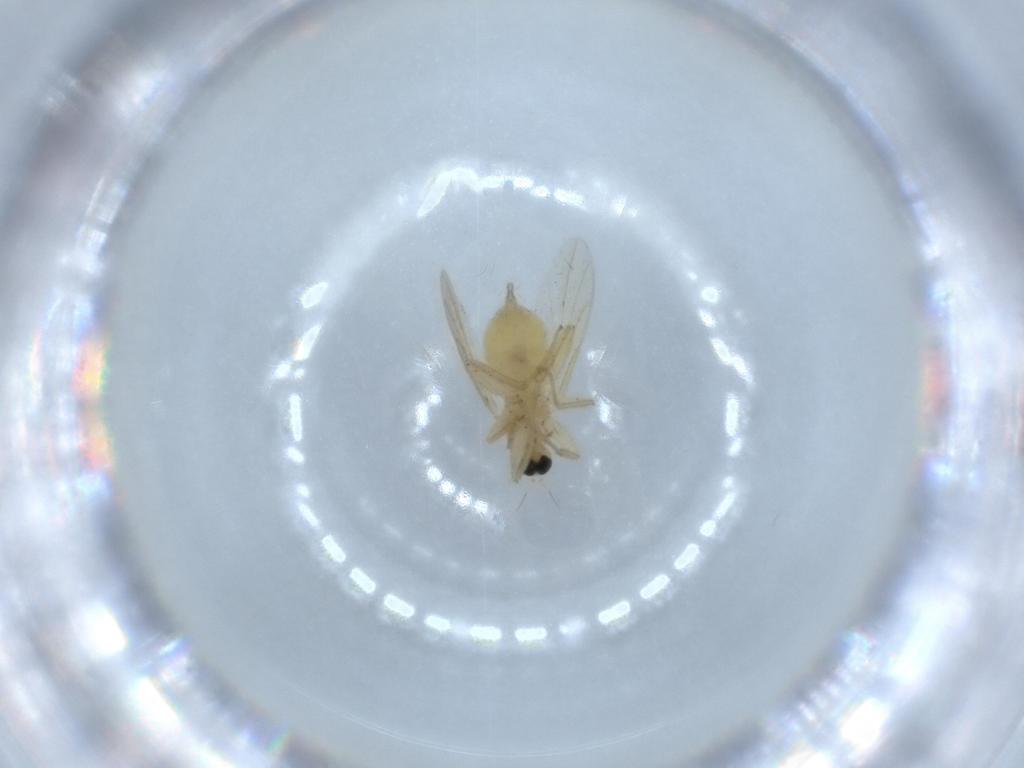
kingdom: Animalia
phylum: Arthropoda
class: Insecta
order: Diptera
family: Hybotidae
